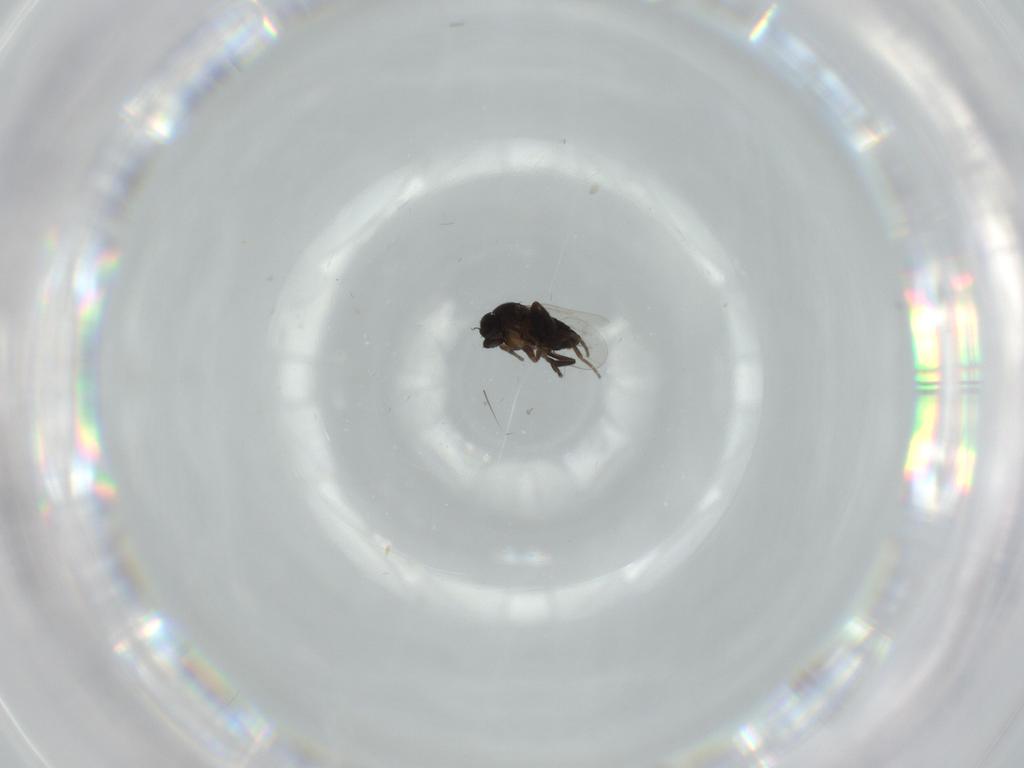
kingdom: Animalia
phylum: Arthropoda
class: Insecta
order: Diptera
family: Phoridae
